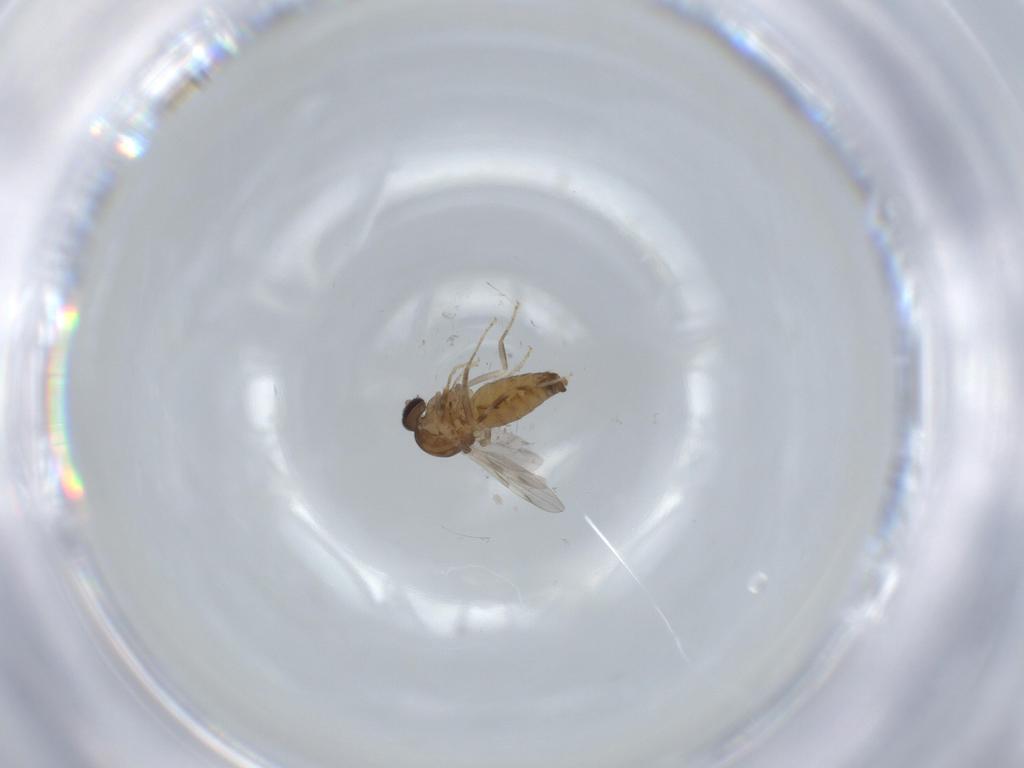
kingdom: Animalia
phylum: Arthropoda
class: Insecta
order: Diptera
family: Ceratopogonidae
